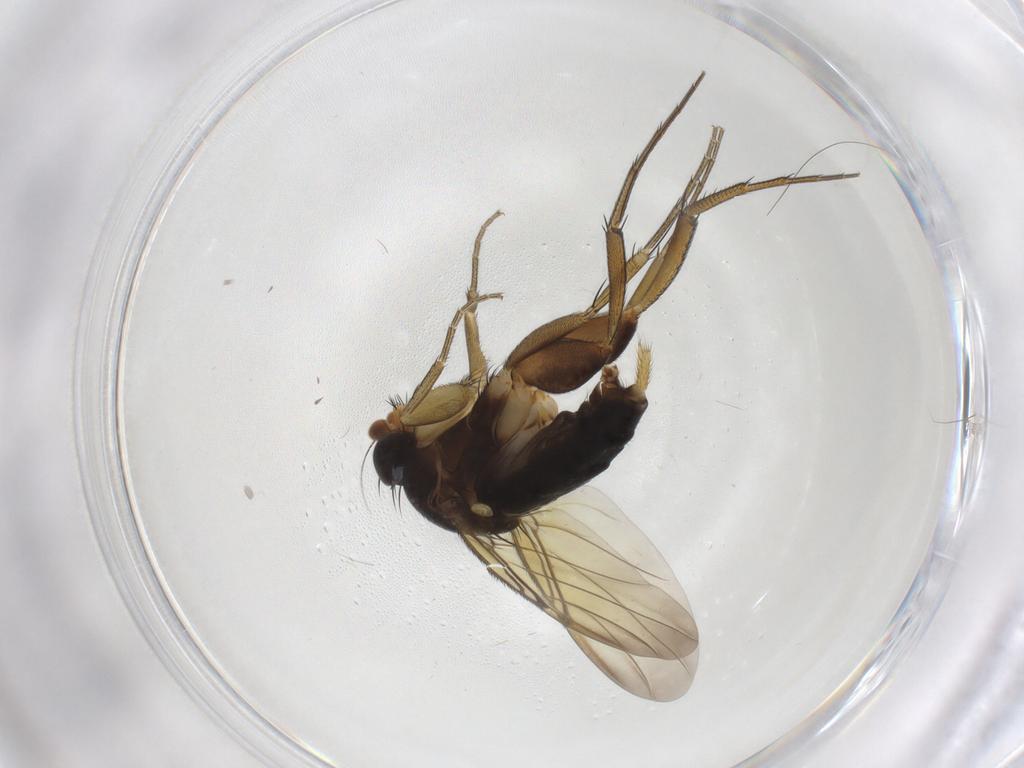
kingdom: Animalia
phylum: Arthropoda
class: Insecta
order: Diptera
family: Phoridae
